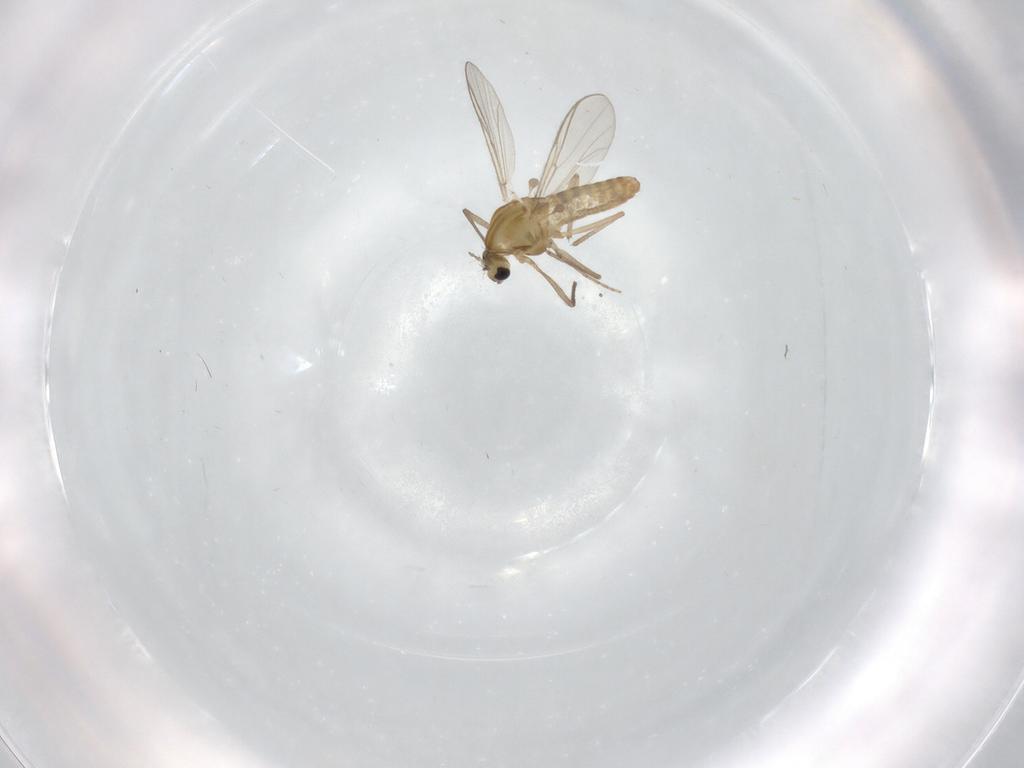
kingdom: Animalia
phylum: Arthropoda
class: Insecta
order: Diptera
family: Chironomidae
